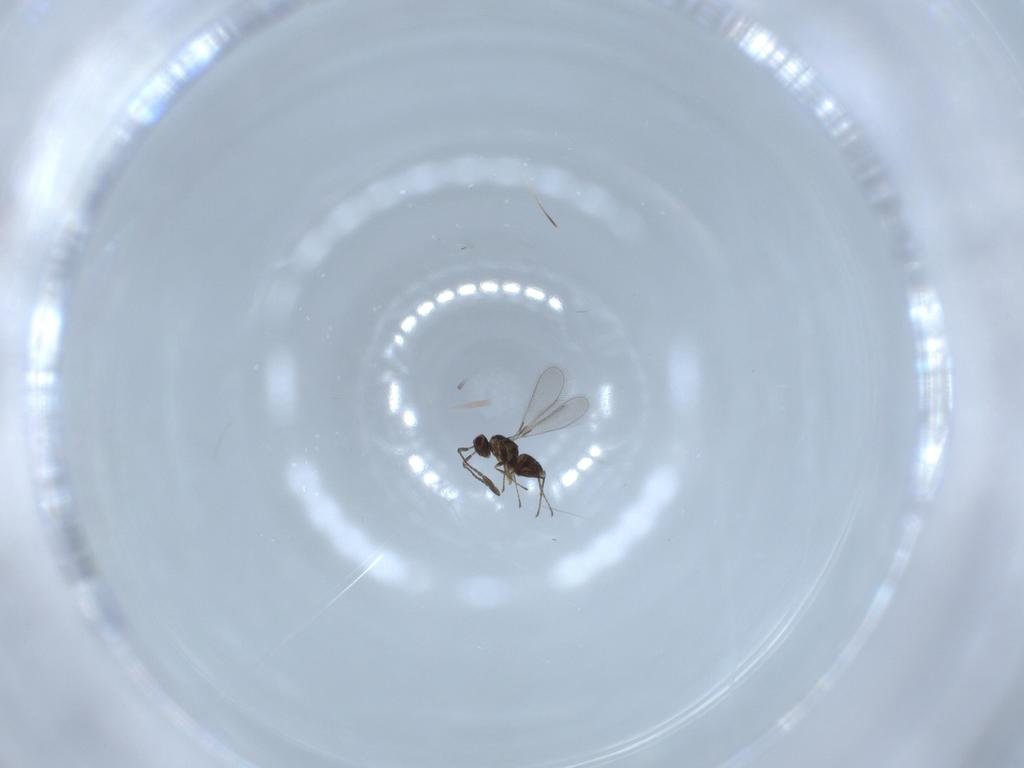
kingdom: Animalia
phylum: Arthropoda
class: Insecta
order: Hymenoptera
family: Mymaridae
